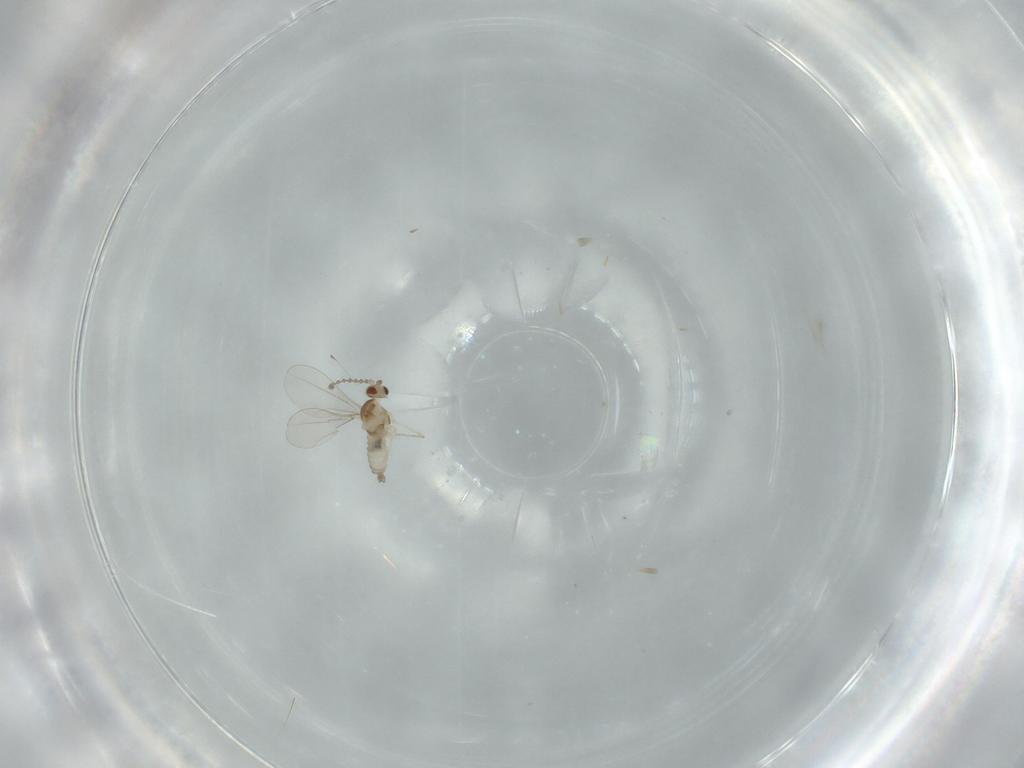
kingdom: Animalia
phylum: Arthropoda
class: Insecta
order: Diptera
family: Cecidomyiidae
